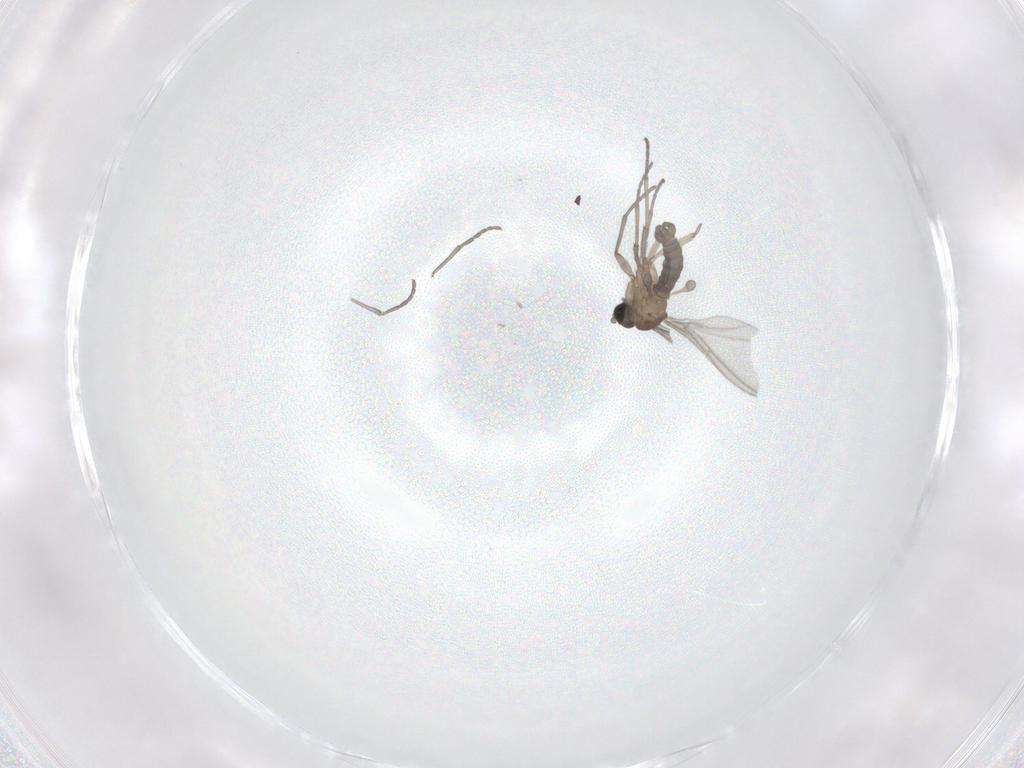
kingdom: Animalia
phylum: Arthropoda
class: Insecta
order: Diptera
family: Sciaridae
